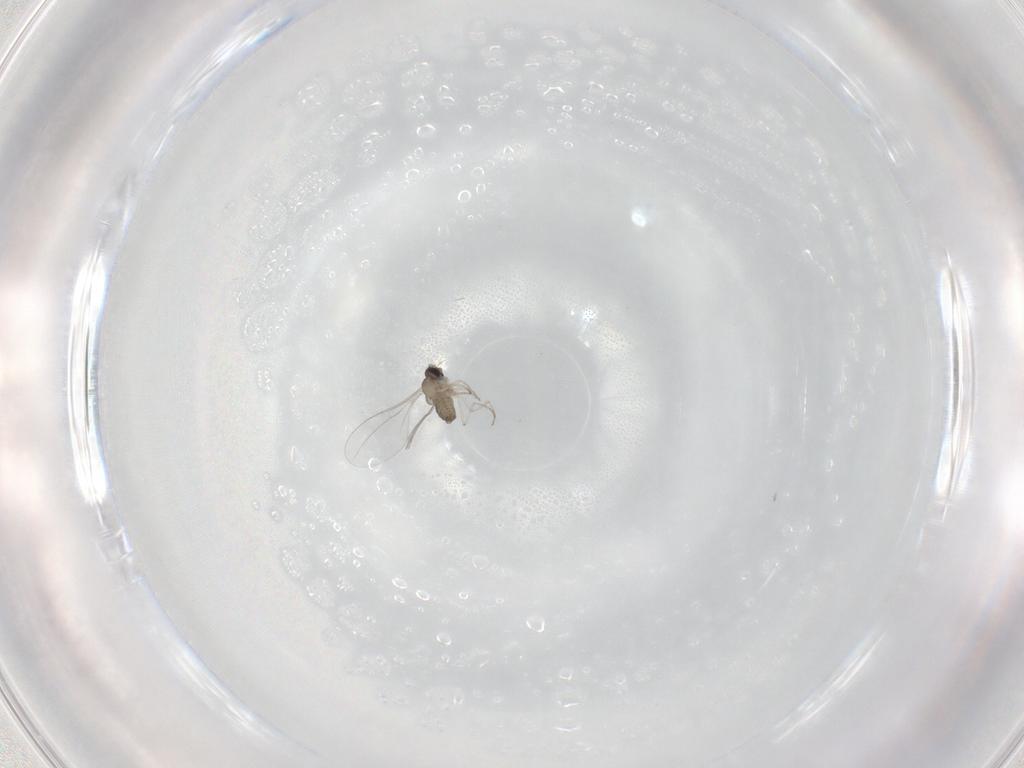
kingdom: Animalia
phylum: Arthropoda
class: Insecta
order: Diptera
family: Cecidomyiidae
